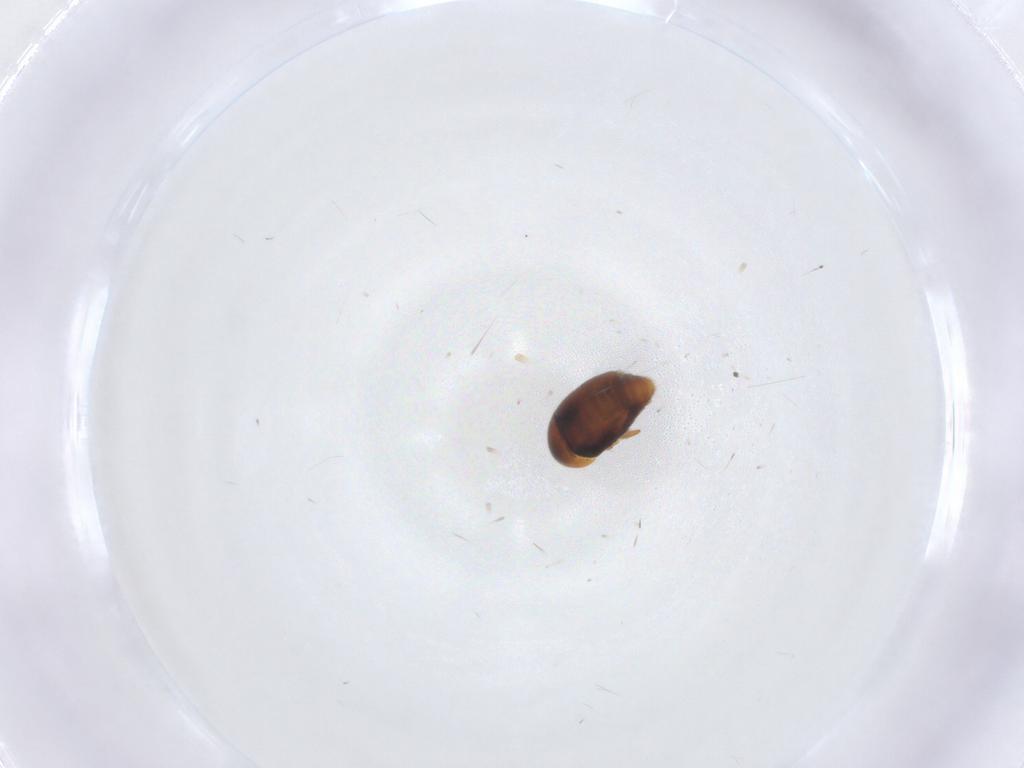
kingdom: Animalia
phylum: Arthropoda
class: Insecta
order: Coleoptera
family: Corylophidae
